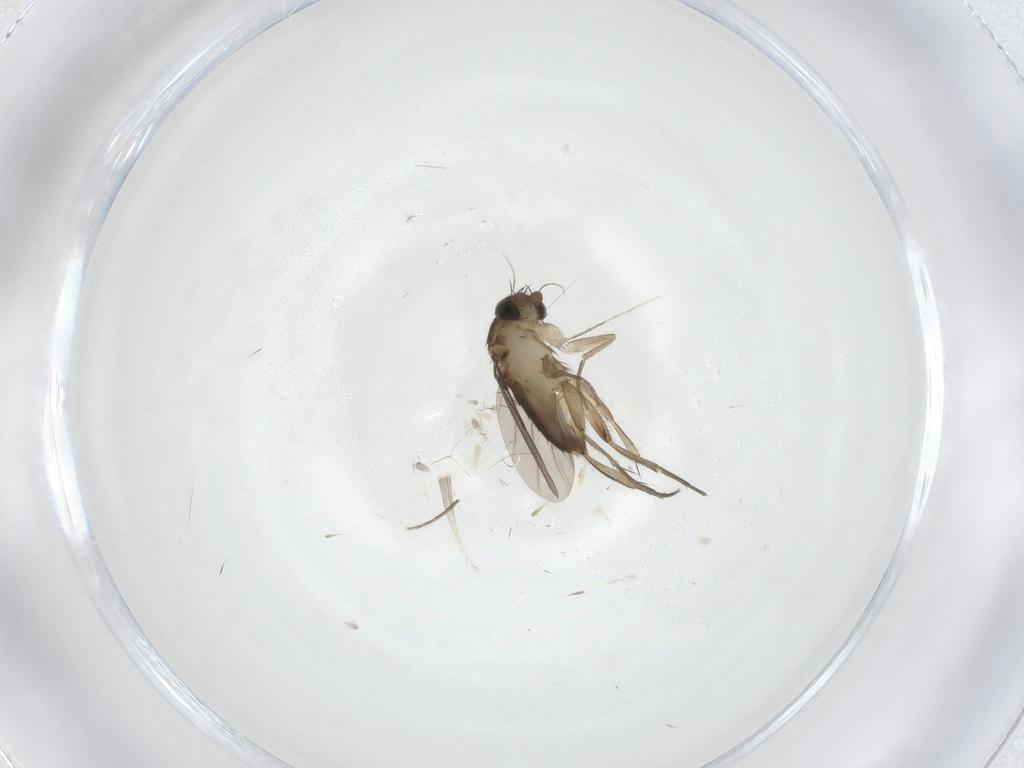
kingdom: Animalia
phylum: Arthropoda
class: Insecta
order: Diptera
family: Phoridae
